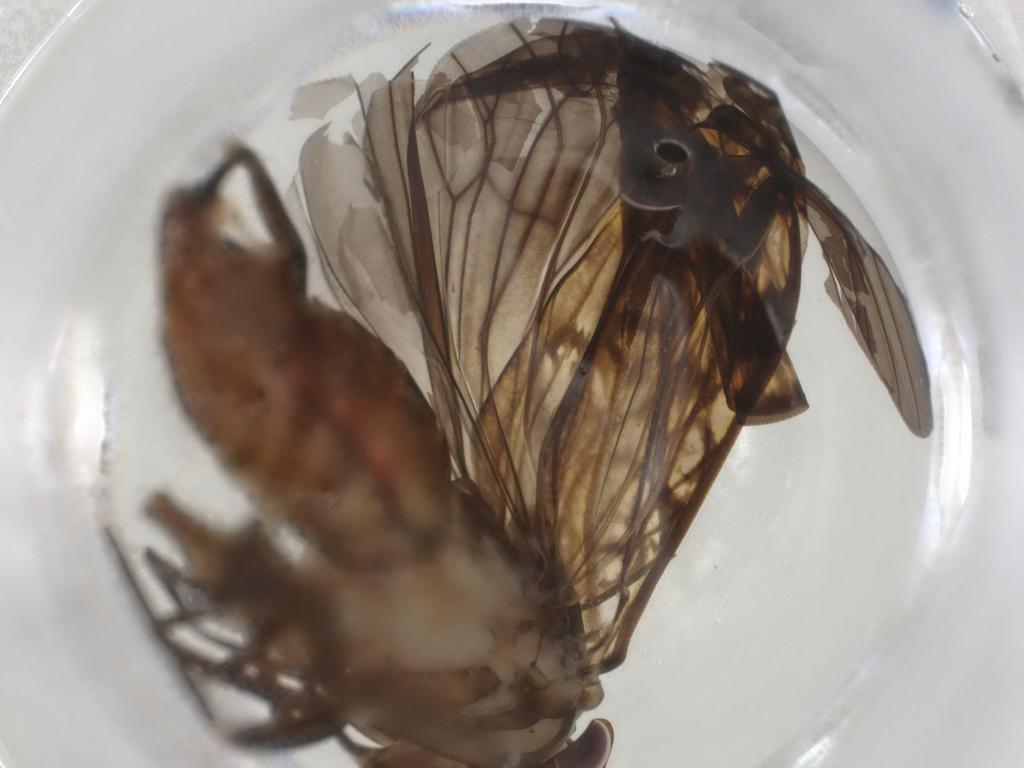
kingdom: Animalia
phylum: Arthropoda
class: Insecta
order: Hemiptera
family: Cixiidae
